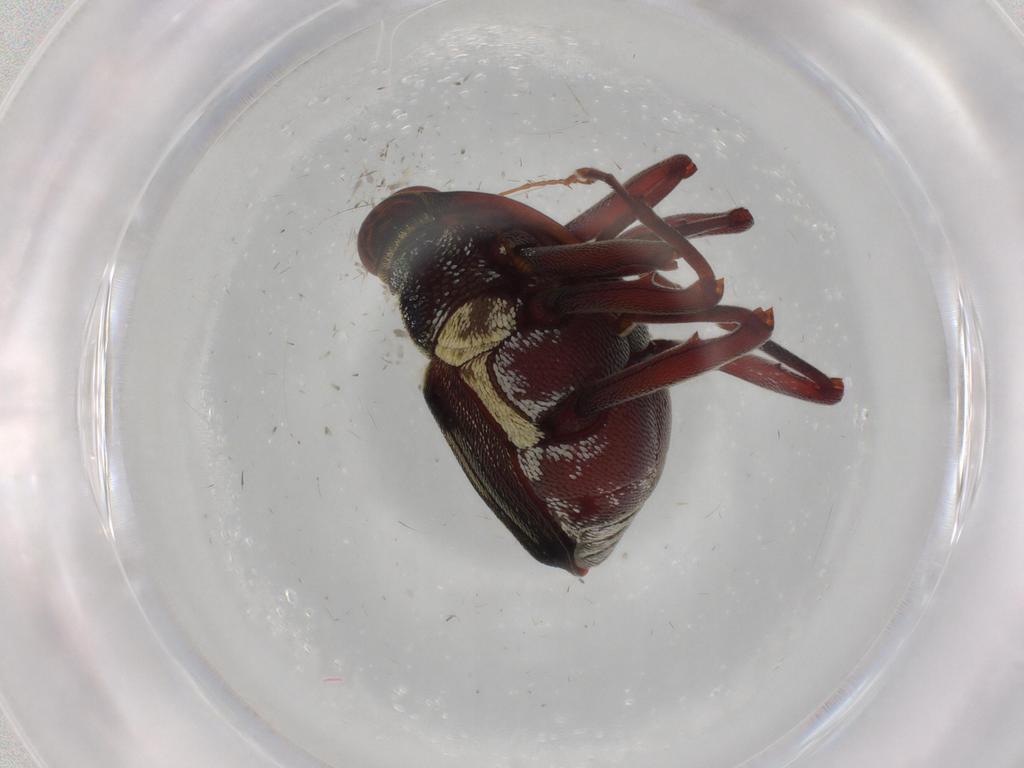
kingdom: Animalia
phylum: Arthropoda
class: Insecta
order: Coleoptera
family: Curculionidae
